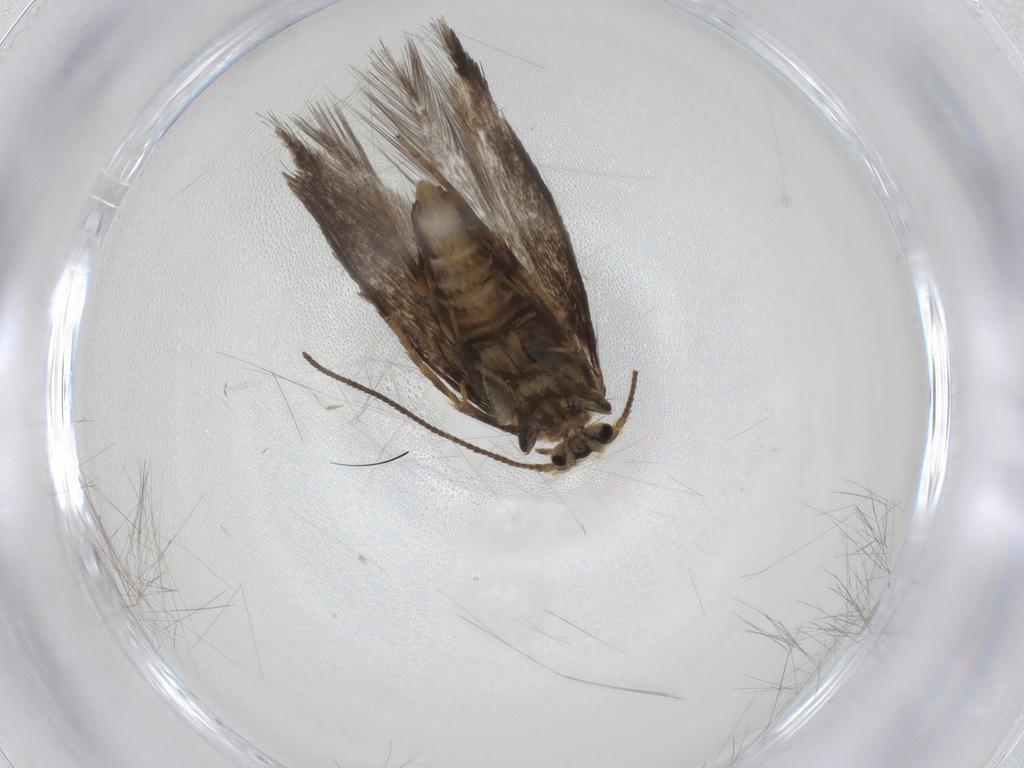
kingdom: Animalia
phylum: Arthropoda
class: Insecta
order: Lepidoptera
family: Nepticulidae
